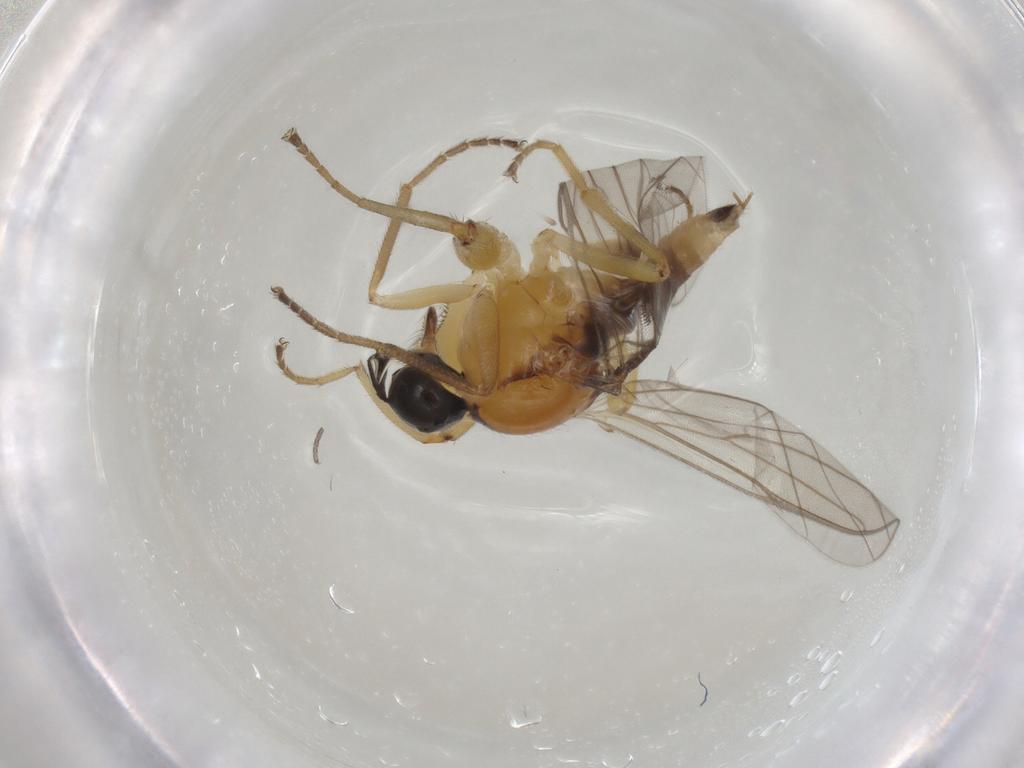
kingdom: Animalia
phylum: Arthropoda
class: Insecta
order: Diptera
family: Hybotidae
